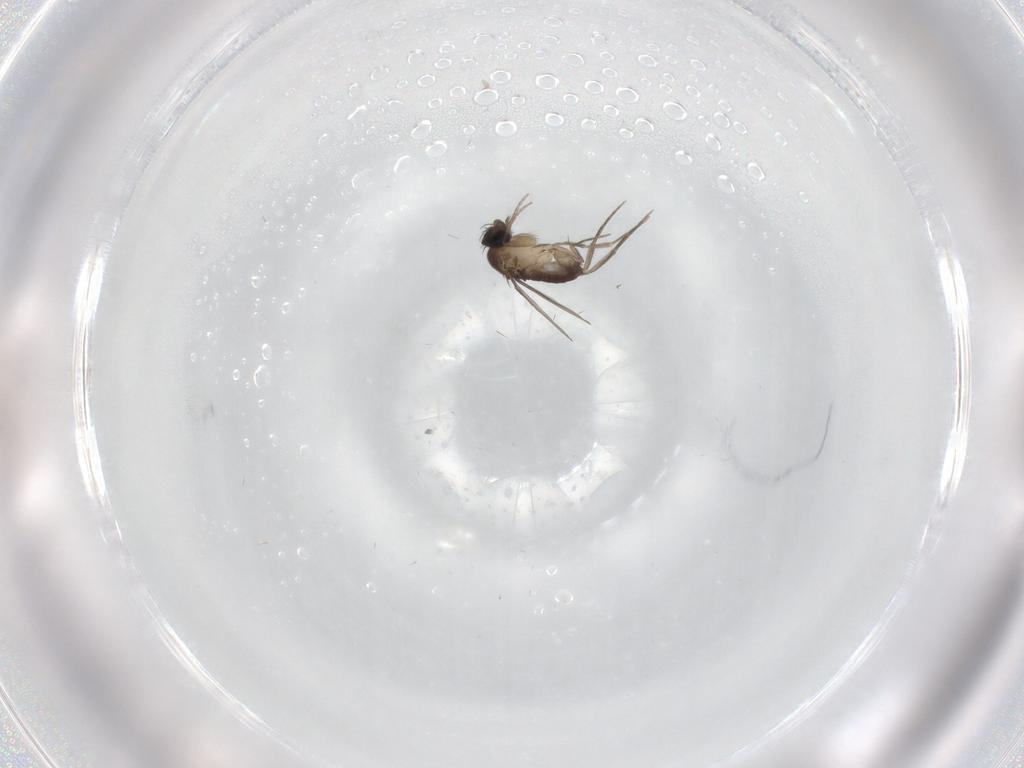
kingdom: Animalia
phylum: Arthropoda
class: Insecta
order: Diptera
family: Phoridae
